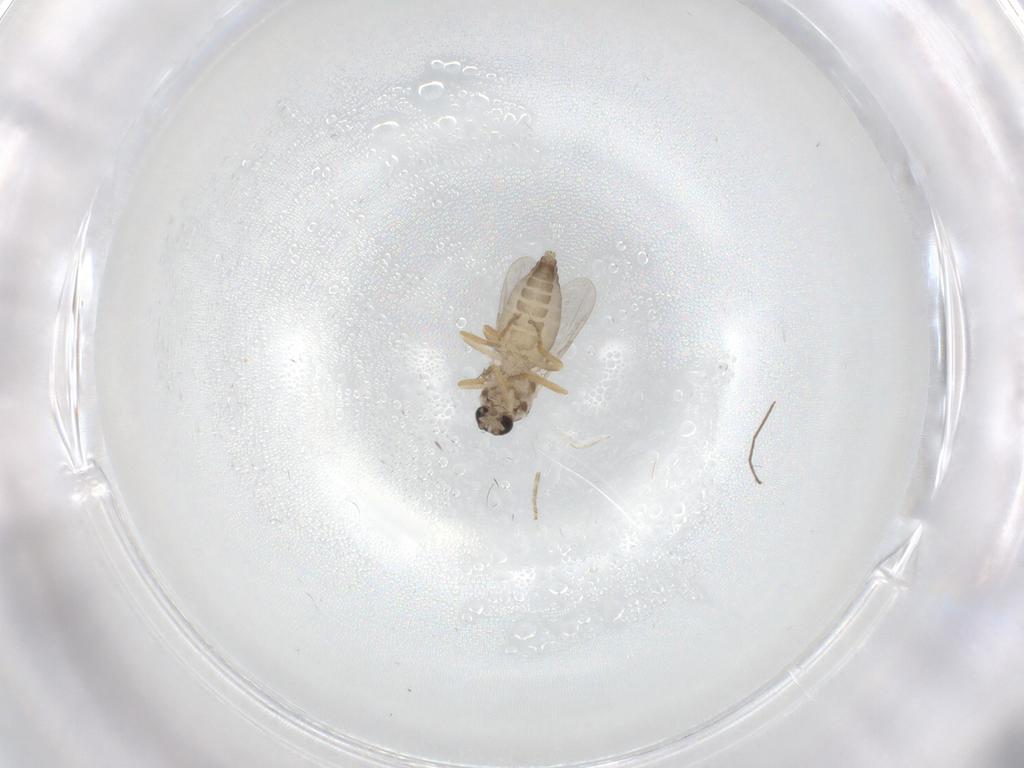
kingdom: Animalia
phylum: Arthropoda
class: Insecta
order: Diptera
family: Ceratopogonidae
